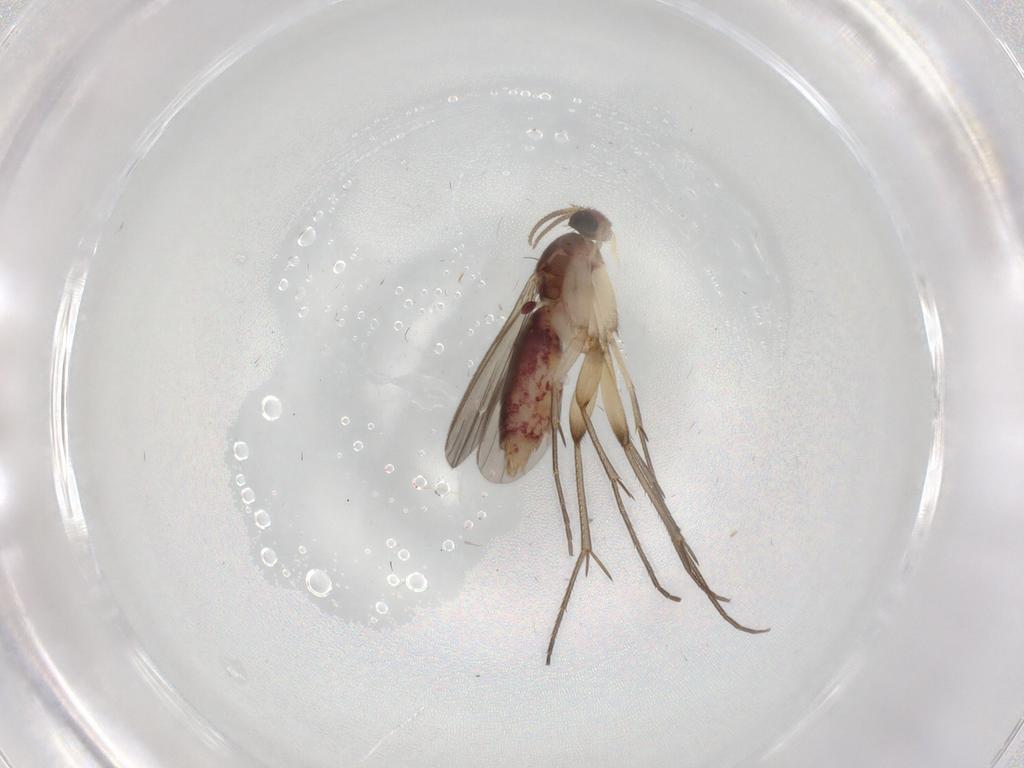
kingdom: Animalia
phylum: Arthropoda
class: Insecta
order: Diptera
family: Mycetophilidae
